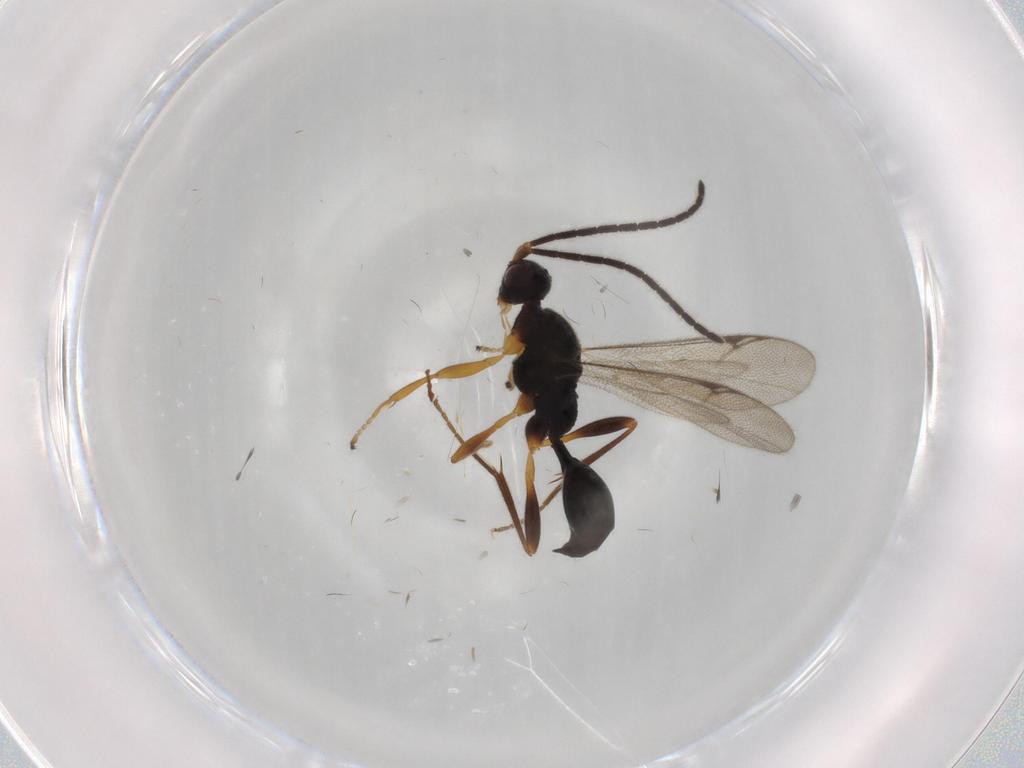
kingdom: Animalia
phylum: Arthropoda
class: Insecta
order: Hymenoptera
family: Proctotrupidae
